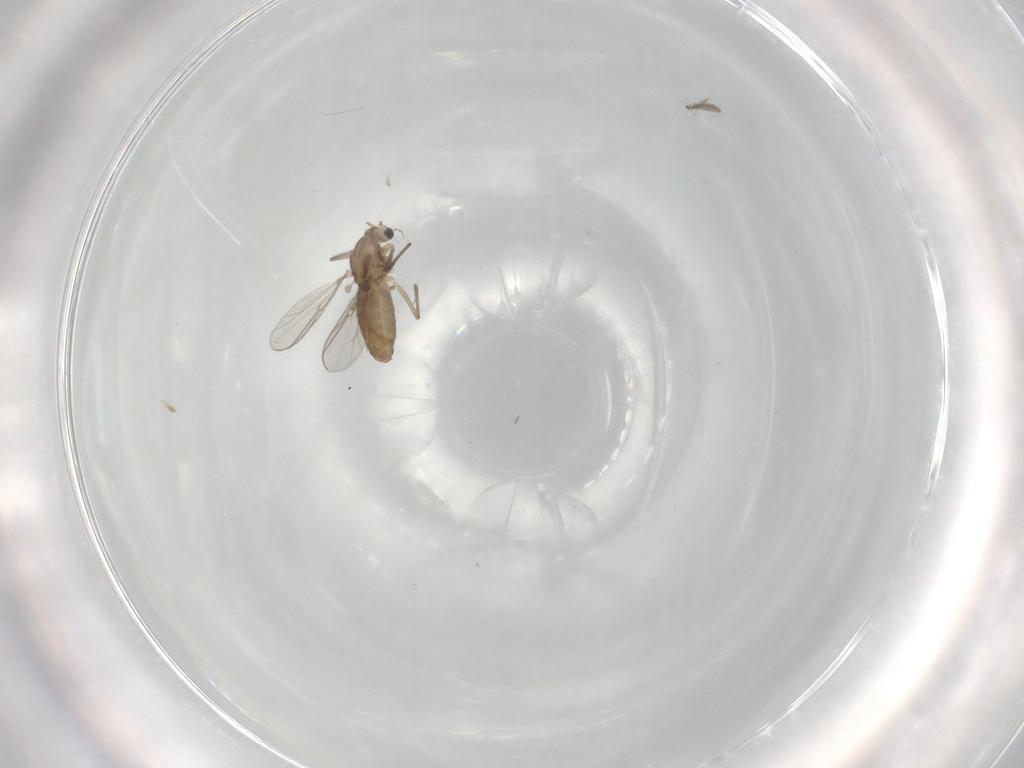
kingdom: Animalia
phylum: Arthropoda
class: Insecta
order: Diptera
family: Chironomidae
